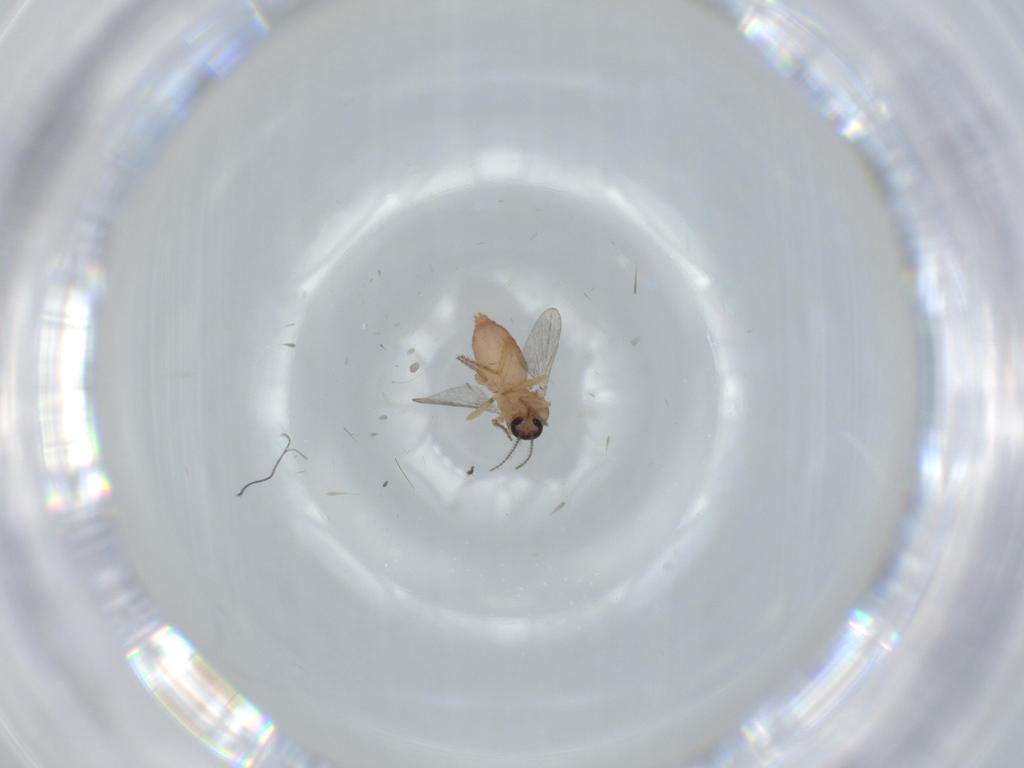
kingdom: Animalia
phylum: Arthropoda
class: Insecta
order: Diptera
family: Ceratopogonidae
